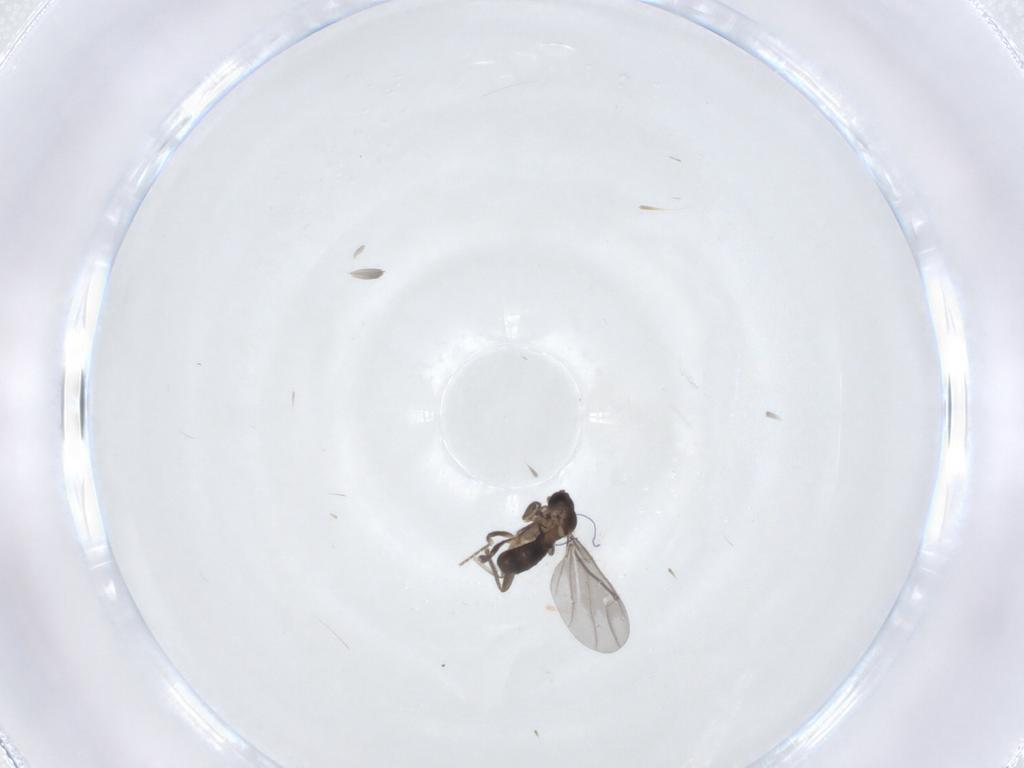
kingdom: Animalia
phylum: Arthropoda
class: Insecta
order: Diptera
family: Phoridae
